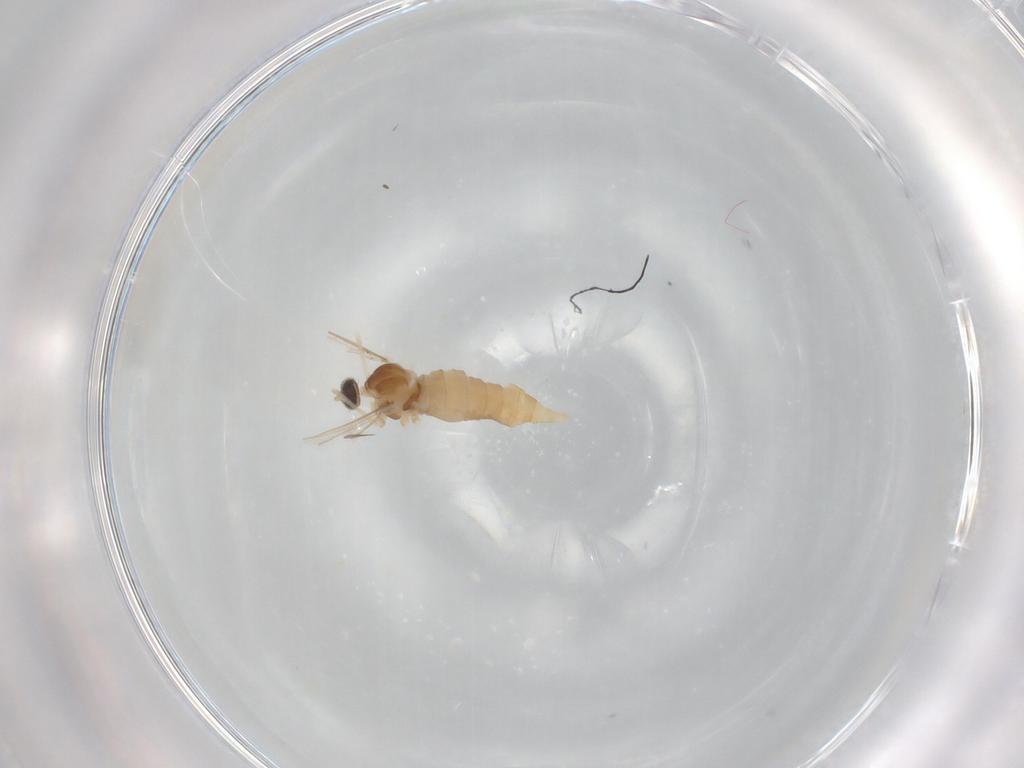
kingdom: Animalia
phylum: Arthropoda
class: Insecta
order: Diptera
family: Cecidomyiidae
